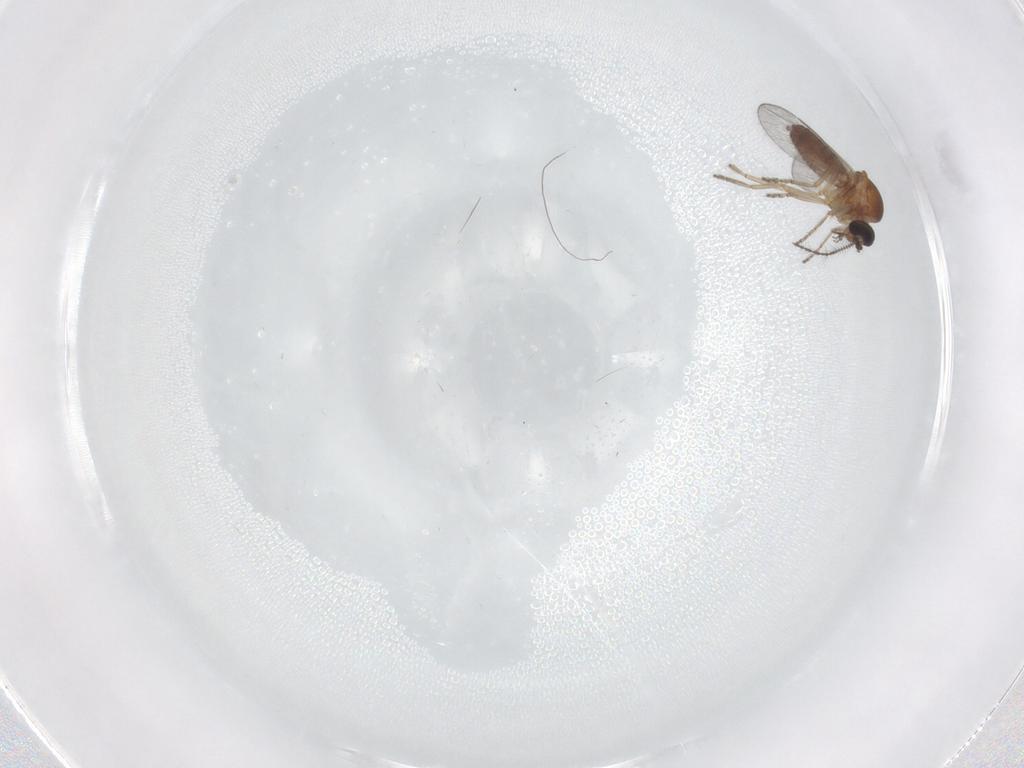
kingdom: Animalia
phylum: Arthropoda
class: Insecta
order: Diptera
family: Ceratopogonidae
